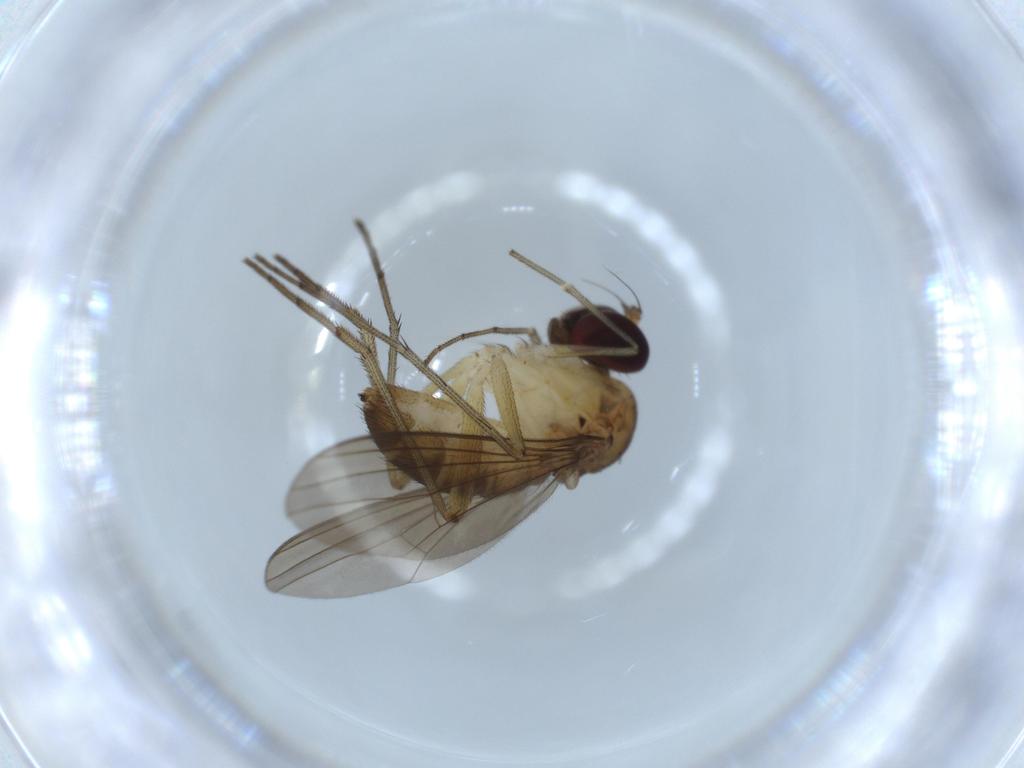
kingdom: Animalia
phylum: Arthropoda
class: Insecta
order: Diptera
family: Dolichopodidae
